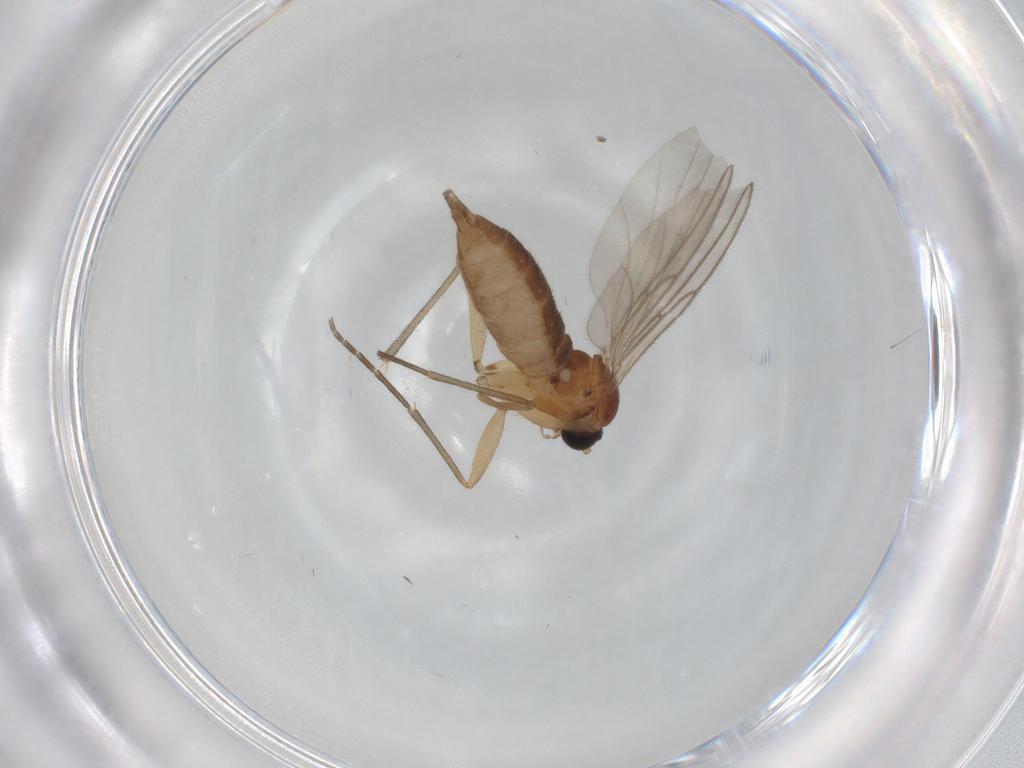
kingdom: Animalia
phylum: Arthropoda
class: Insecta
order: Diptera
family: Sciaridae
